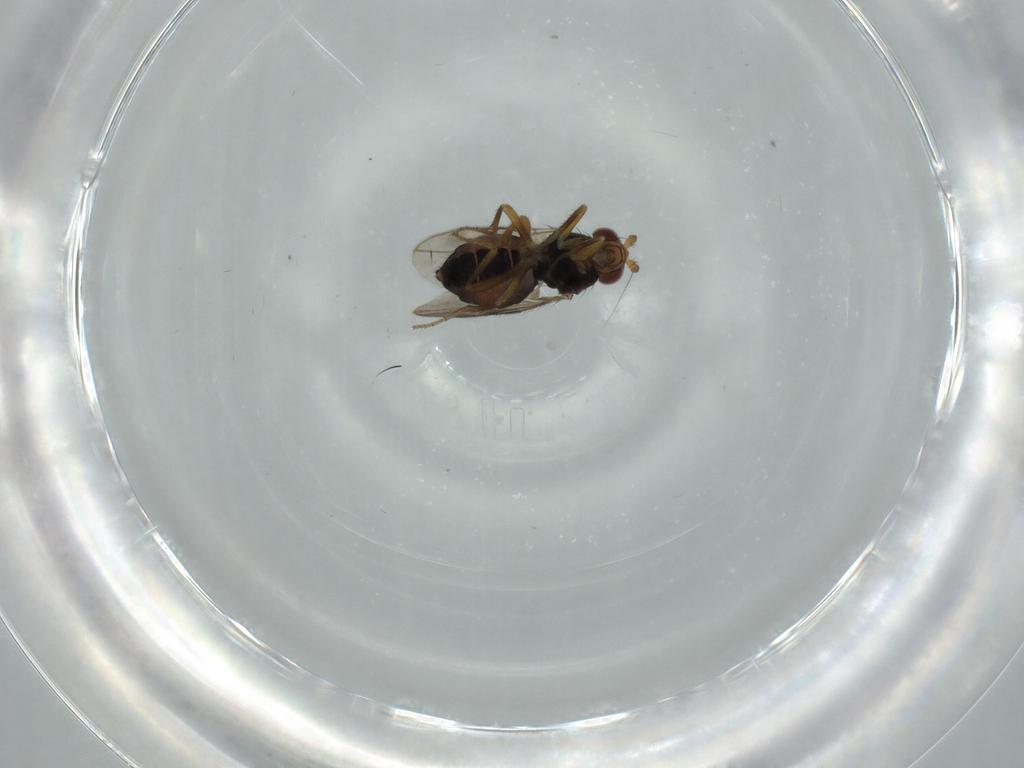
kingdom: Animalia
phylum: Arthropoda
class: Insecta
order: Diptera
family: Sphaeroceridae
